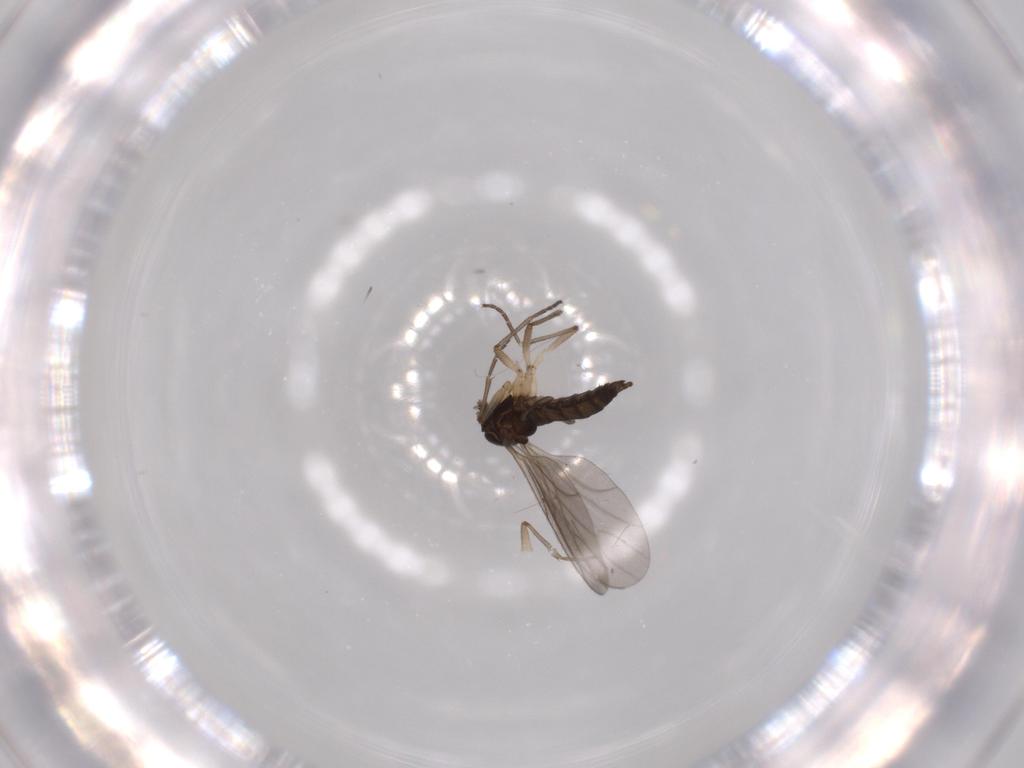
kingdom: Animalia
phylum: Arthropoda
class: Insecta
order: Diptera
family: Sciaridae
